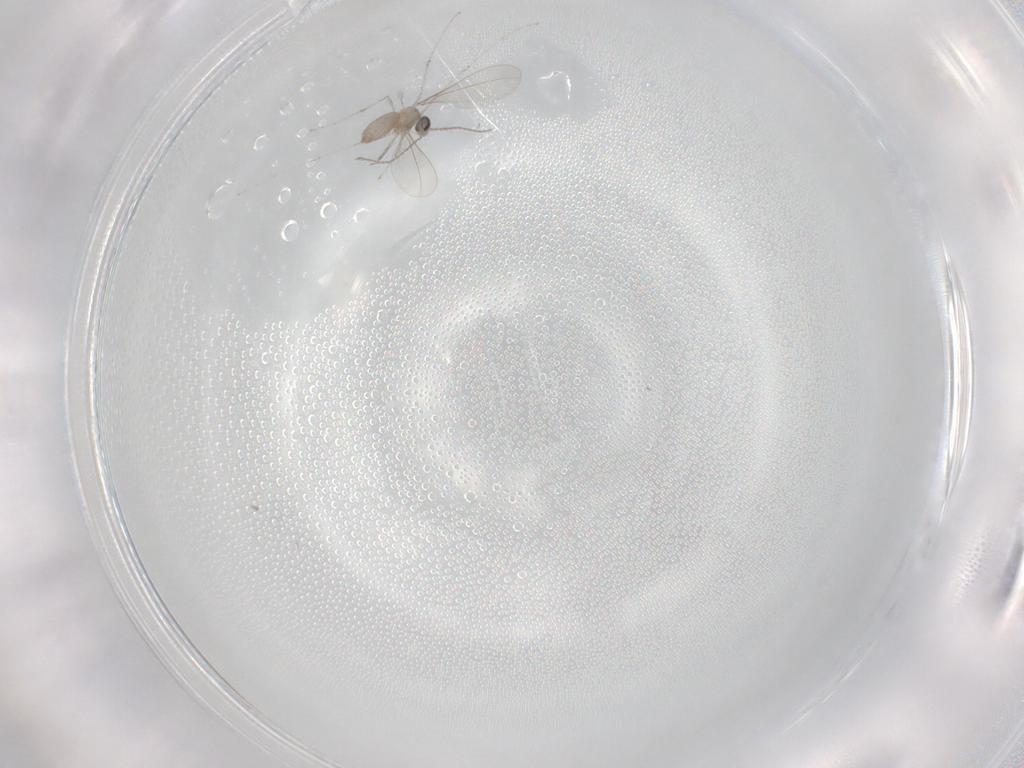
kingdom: Animalia
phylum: Arthropoda
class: Insecta
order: Diptera
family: Chironomidae
